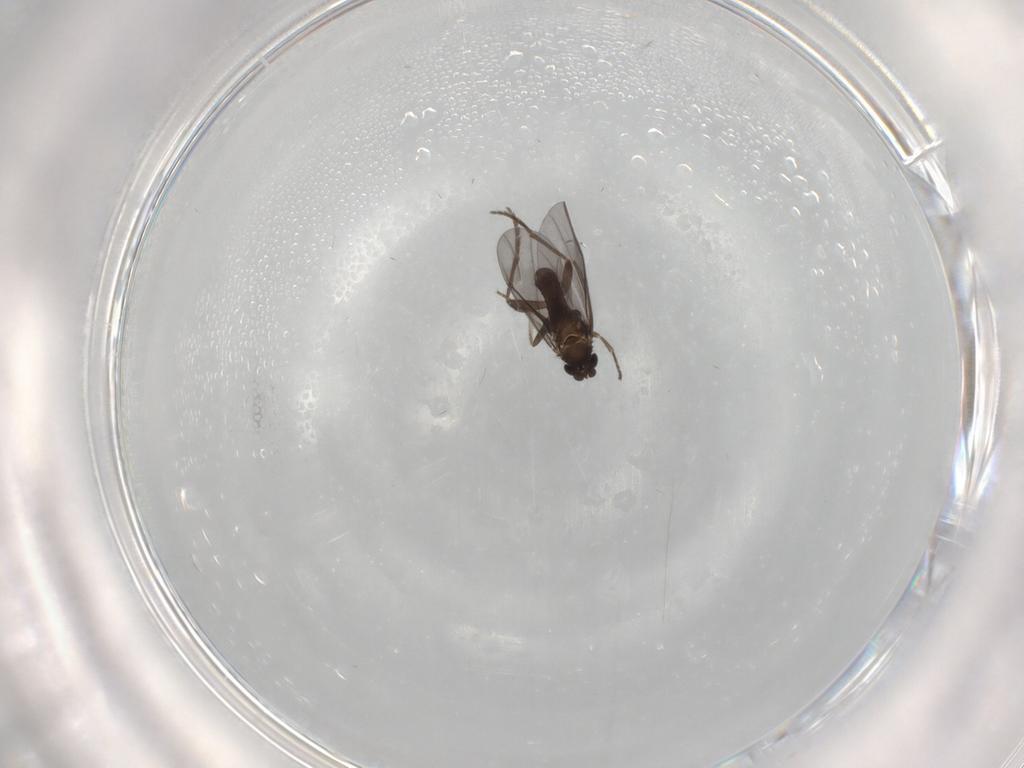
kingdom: Animalia
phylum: Arthropoda
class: Insecta
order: Diptera
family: Phoridae
